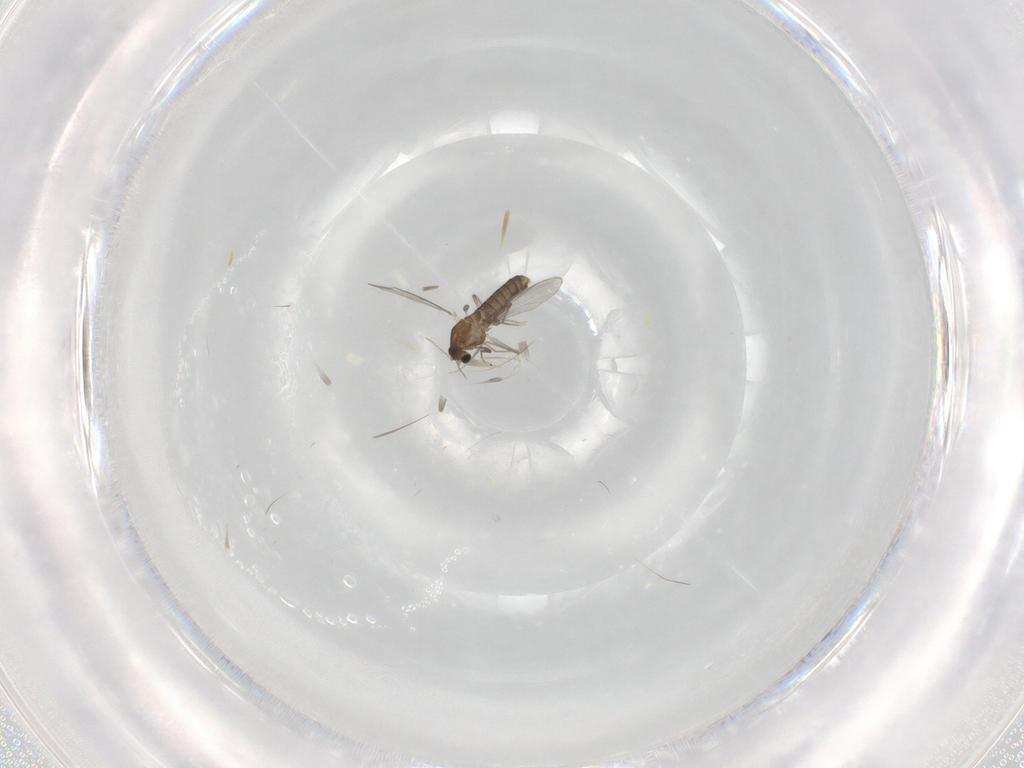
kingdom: Animalia
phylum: Arthropoda
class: Insecta
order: Diptera
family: Chironomidae
